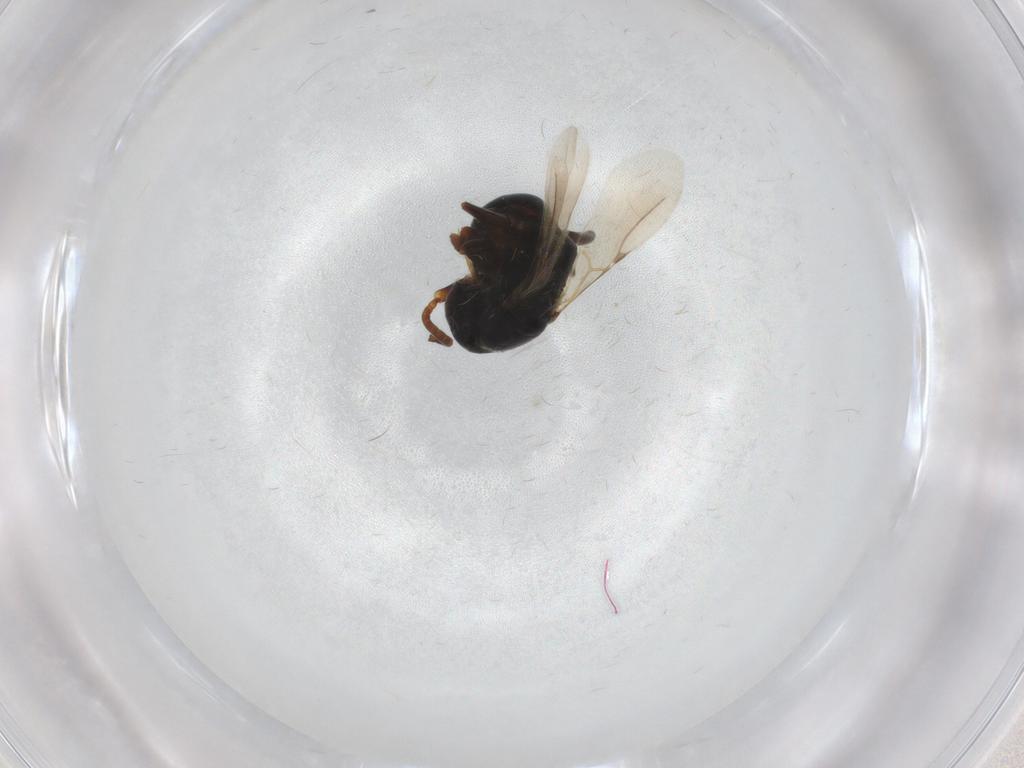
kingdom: Animalia
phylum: Arthropoda
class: Insecta
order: Hymenoptera
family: Bethylidae
